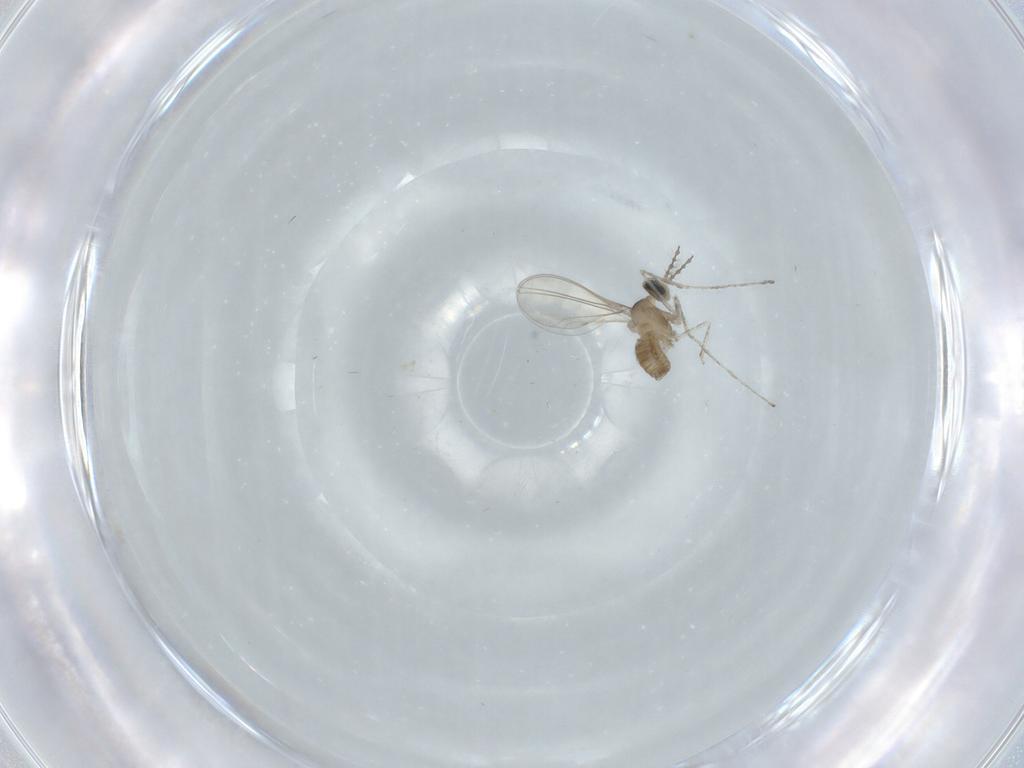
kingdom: Animalia
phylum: Arthropoda
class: Insecta
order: Diptera
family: Cecidomyiidae
